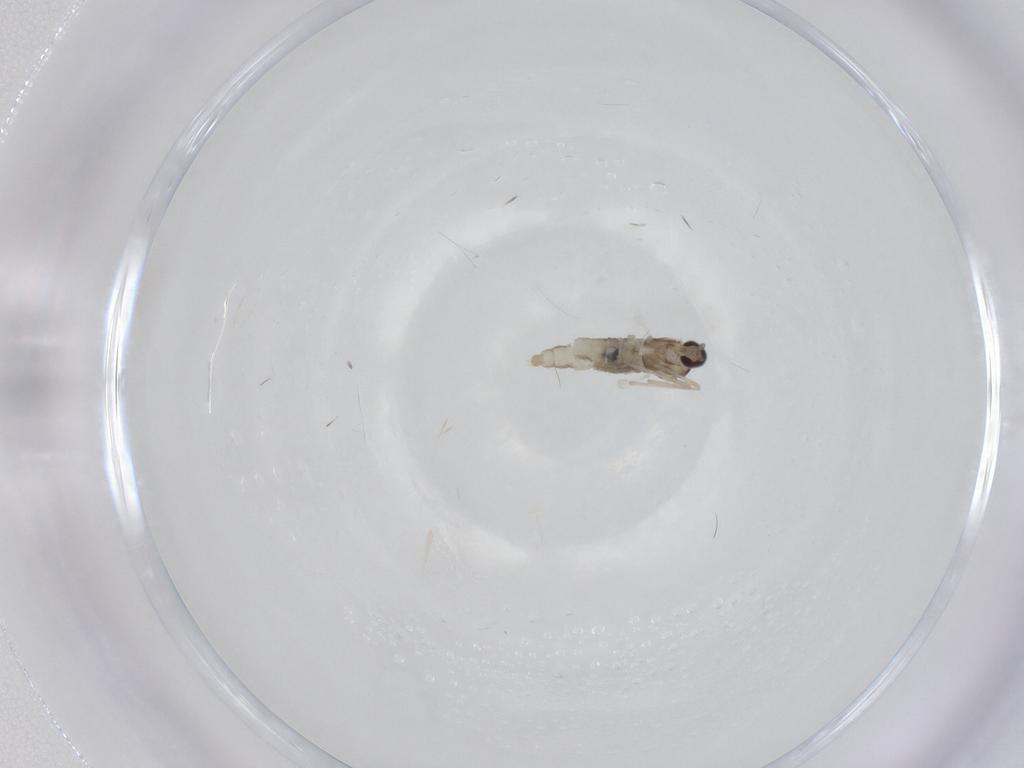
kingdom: Animalia
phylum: Arthropoda
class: Insecta
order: Diptera
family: Cecidomyiidae
